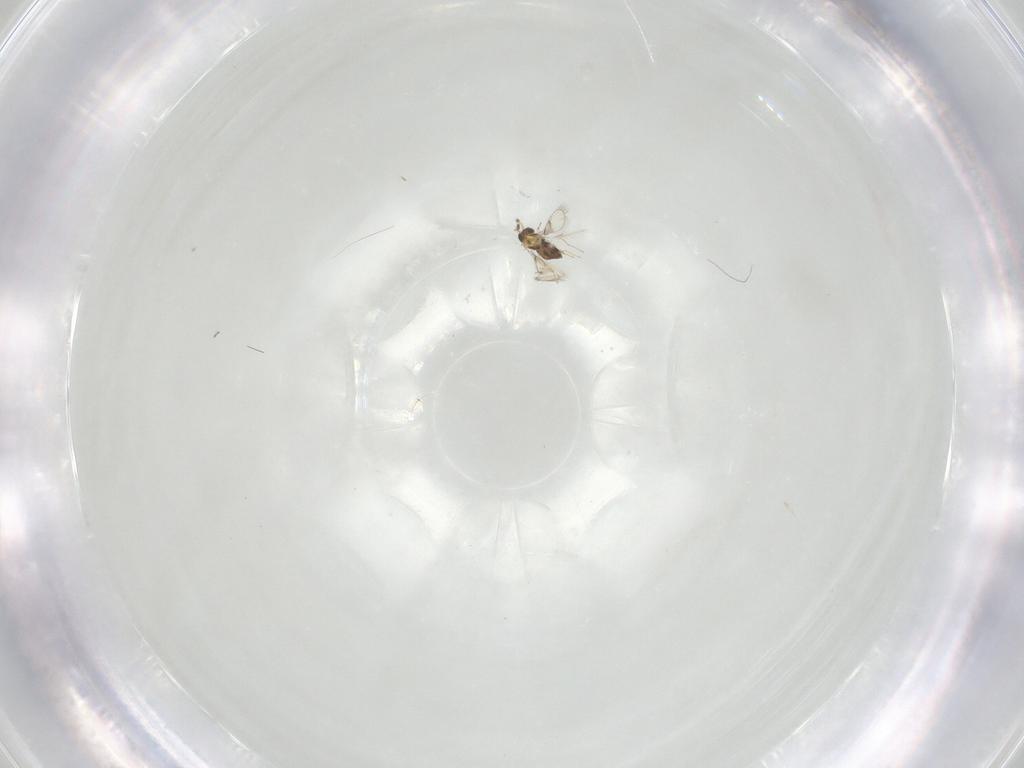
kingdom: Animalia
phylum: Arthropoda
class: Insecta
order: Hymenoptera
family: Trichogrammatidae
